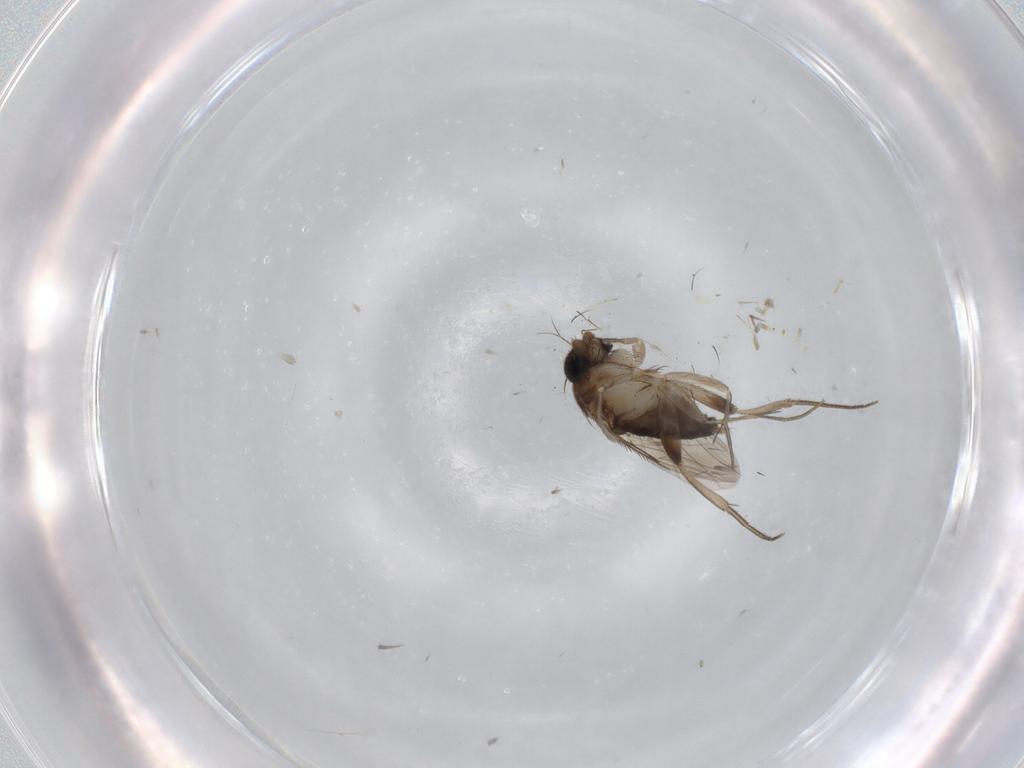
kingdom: Animalia
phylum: Arthropoda
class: Insecta
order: Diptera
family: Phoridae
